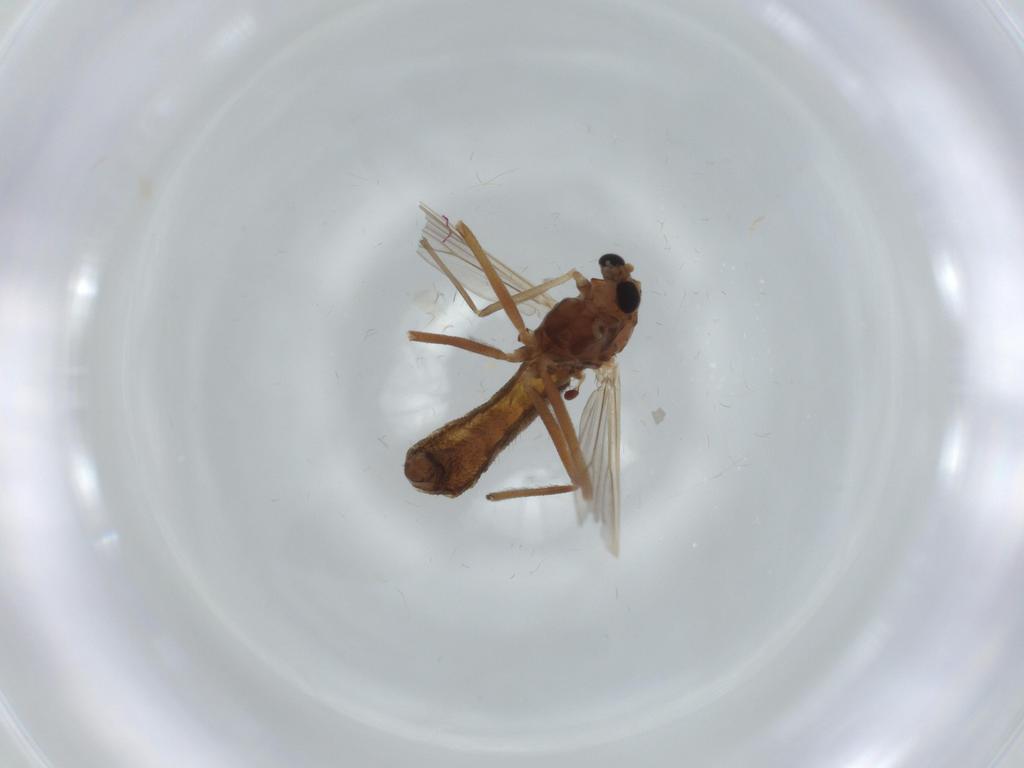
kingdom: Animalia
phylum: Arthropoda
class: Insecta
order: Diptera
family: Chironomidae
